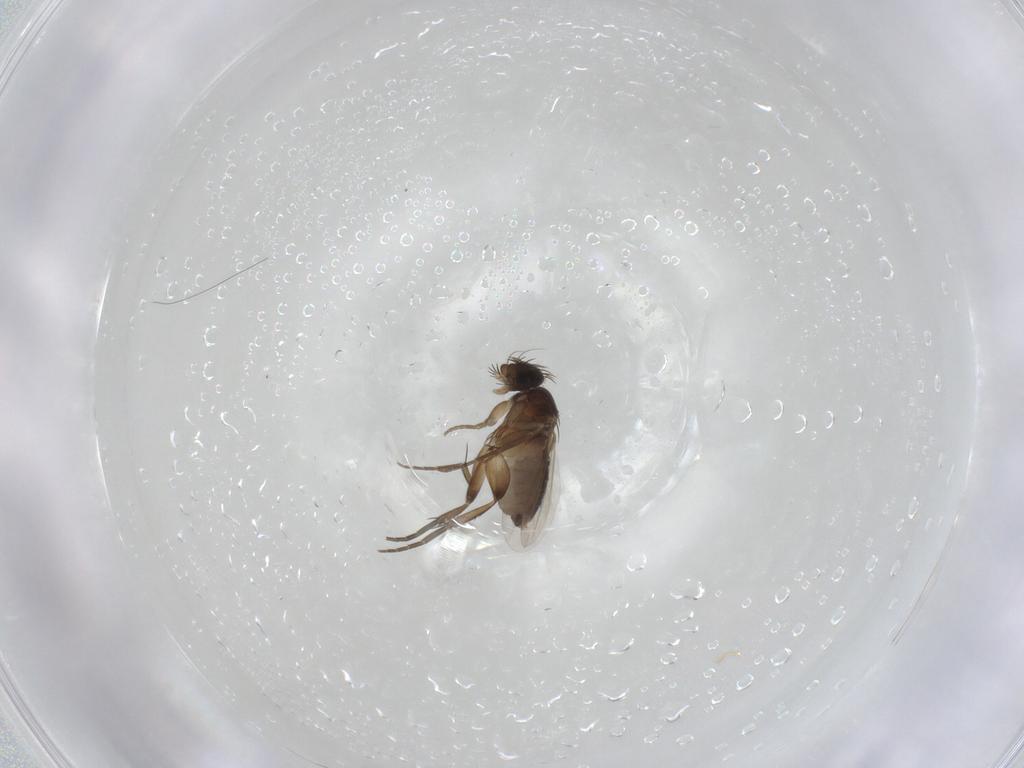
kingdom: Animalia
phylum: Arthropoda
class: Insecta
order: Diptera
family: Phoridae
